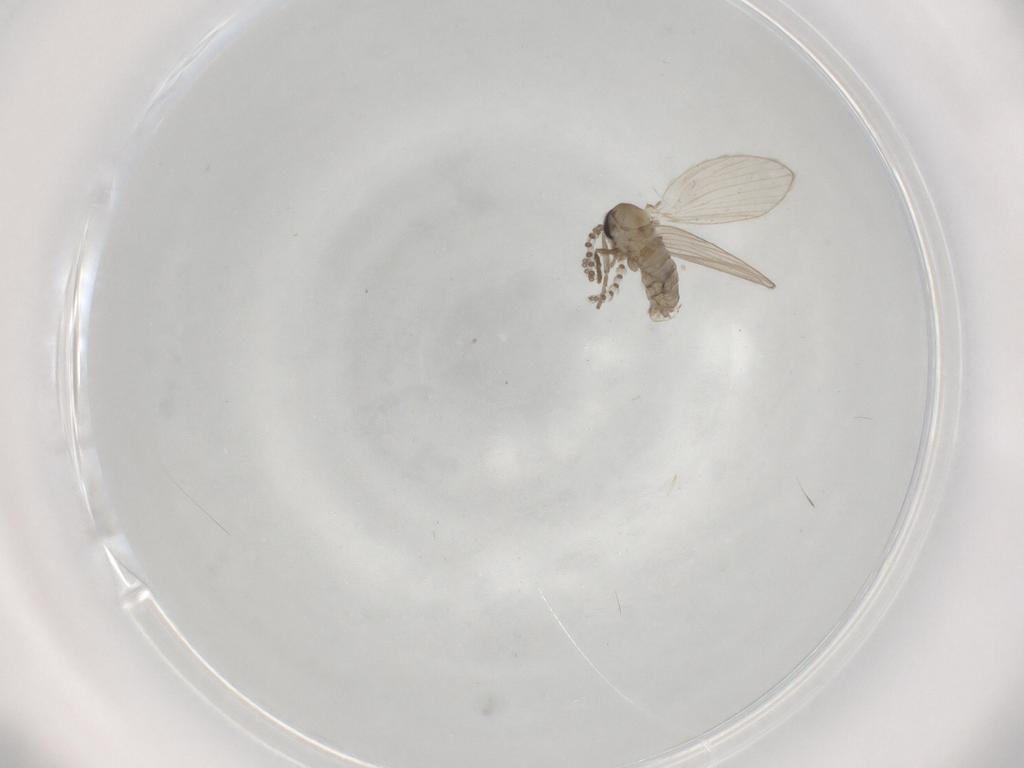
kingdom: Animalia
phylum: Arthropoda
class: Insecta
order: Diptera
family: Psychodidae
